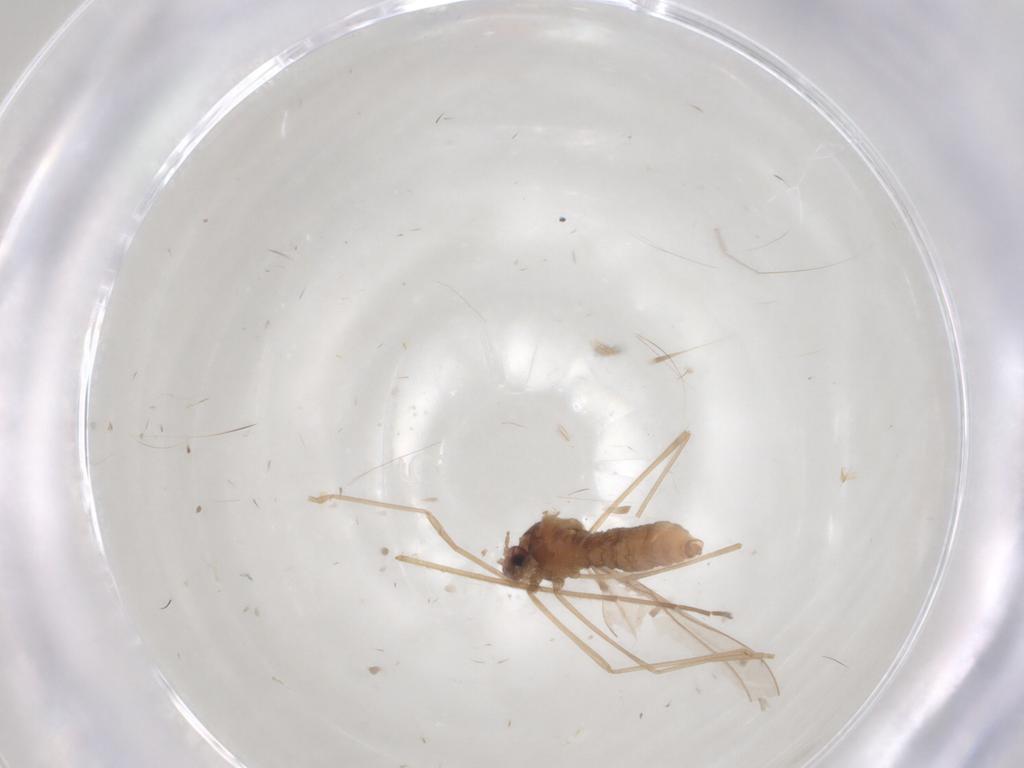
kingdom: Animalia
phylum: Arthropoda
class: Insecta
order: Diptera
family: Cecidomyiidae
